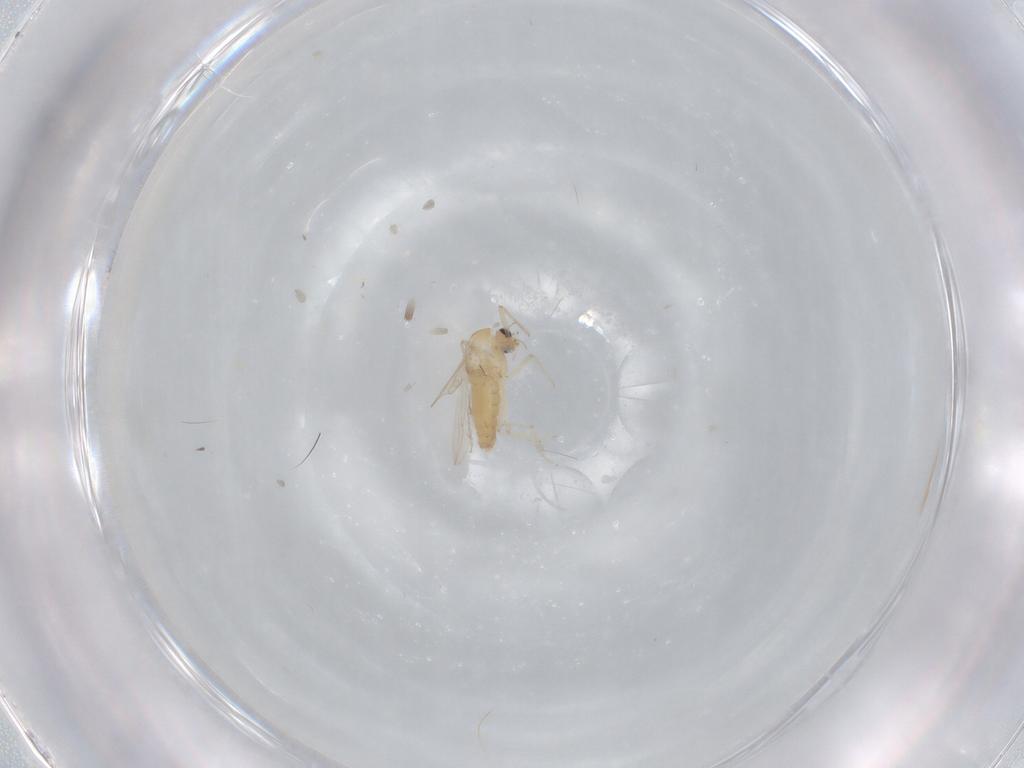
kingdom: Animalia
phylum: Arthropoda
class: Insecta
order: Diptera
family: Chironomidae
